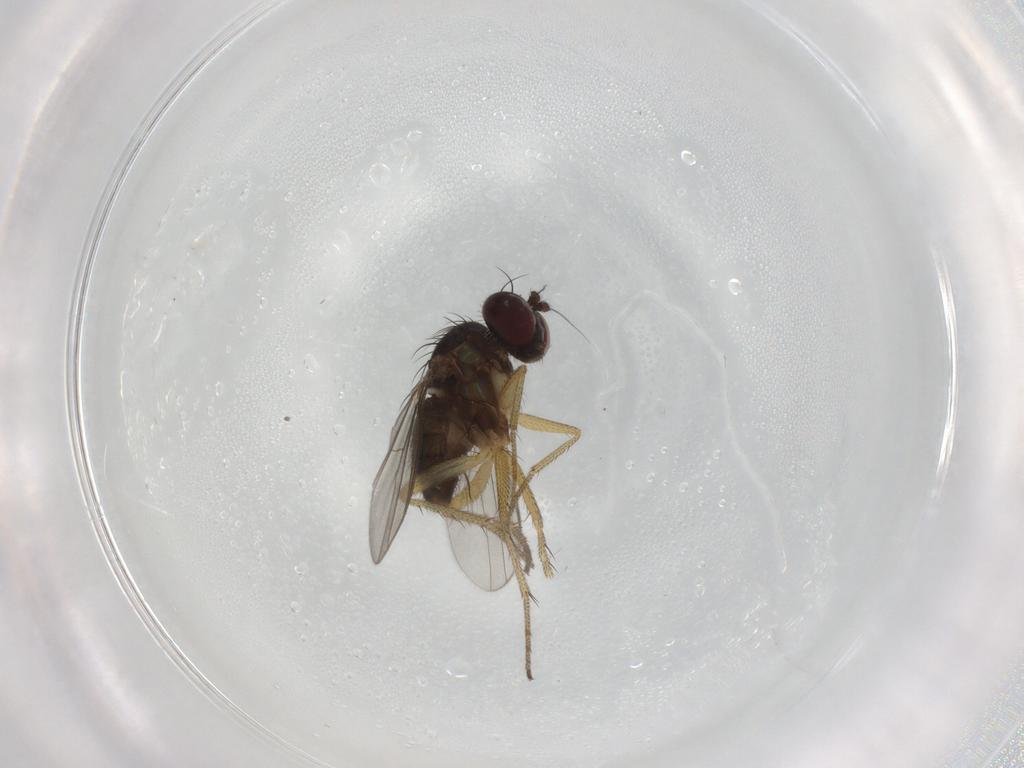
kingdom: Animalia
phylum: Arthropoda
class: Insecta
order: Diptera
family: Dolichopodidae
